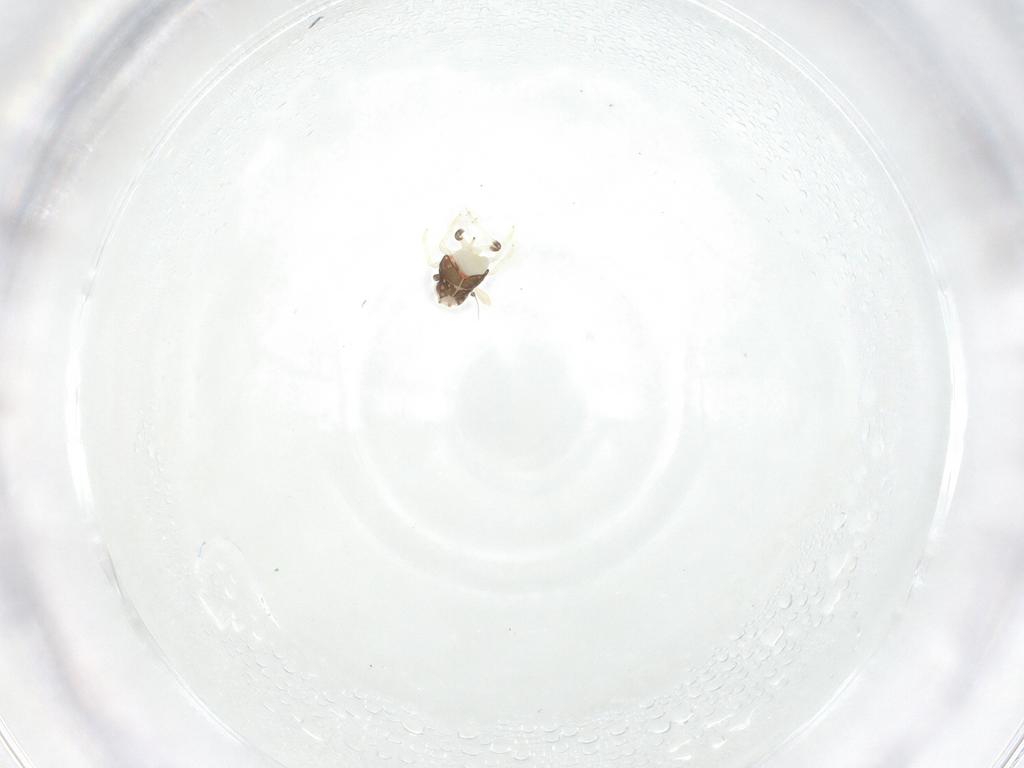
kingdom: Animalia
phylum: Arthropoda
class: Insecta
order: Hemiptera
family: Nogodinidae
